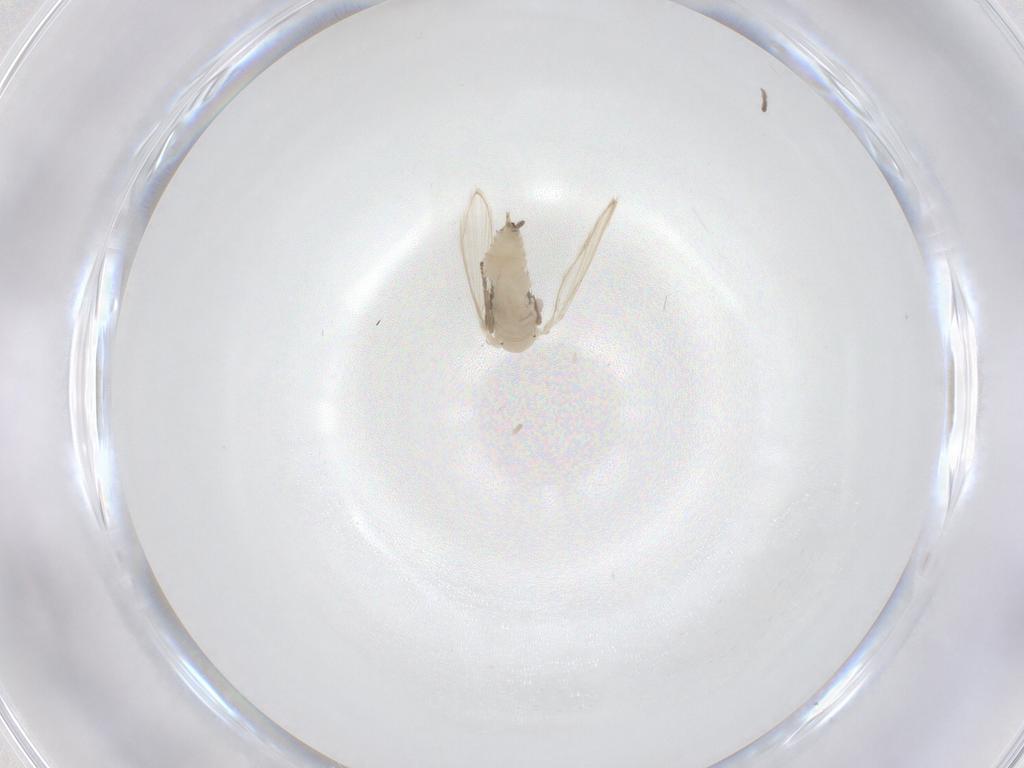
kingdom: Animalia
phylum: Arthropoda
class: Insecta
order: Diptera
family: Psychodidae
